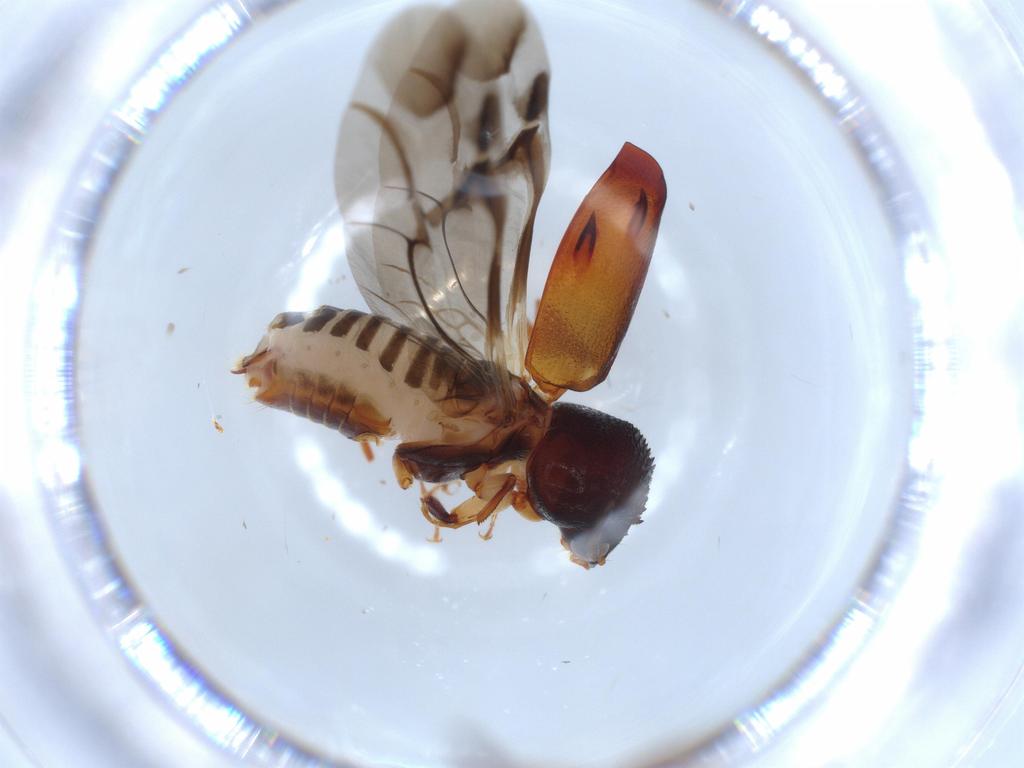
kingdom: Animalia
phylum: Arthropoda
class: Insecta
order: Coleoptera
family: Bostrichidae
